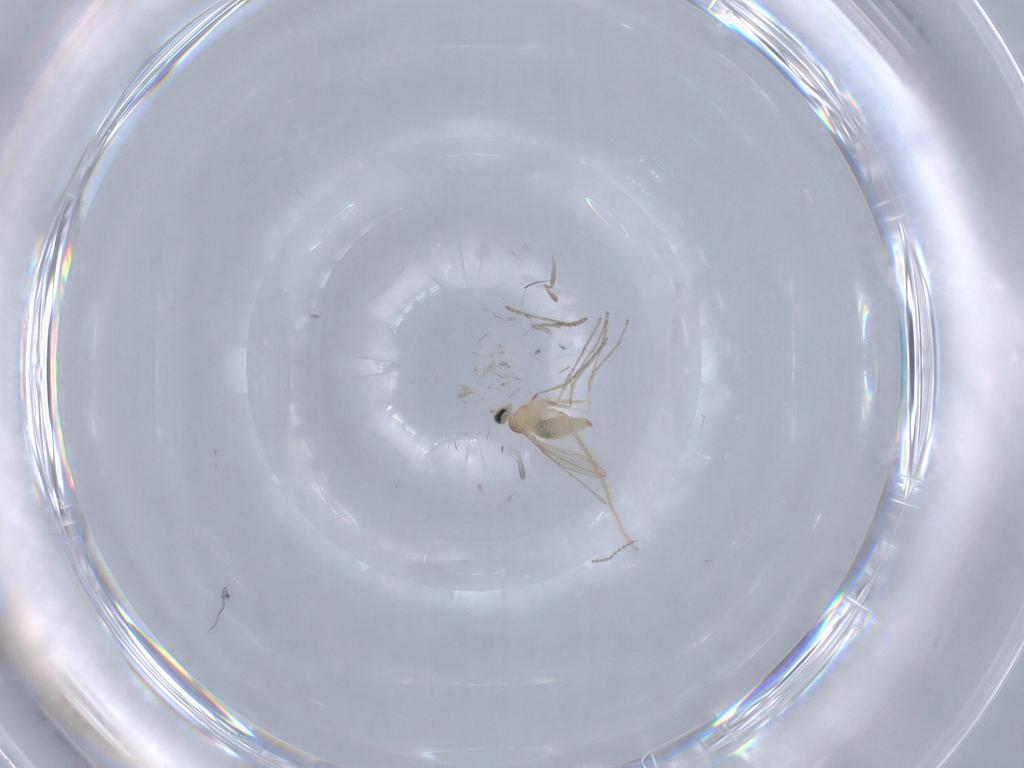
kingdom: Animalia
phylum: Arthropoda
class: Insecta
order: Diptera
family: Cecidomyiidae
